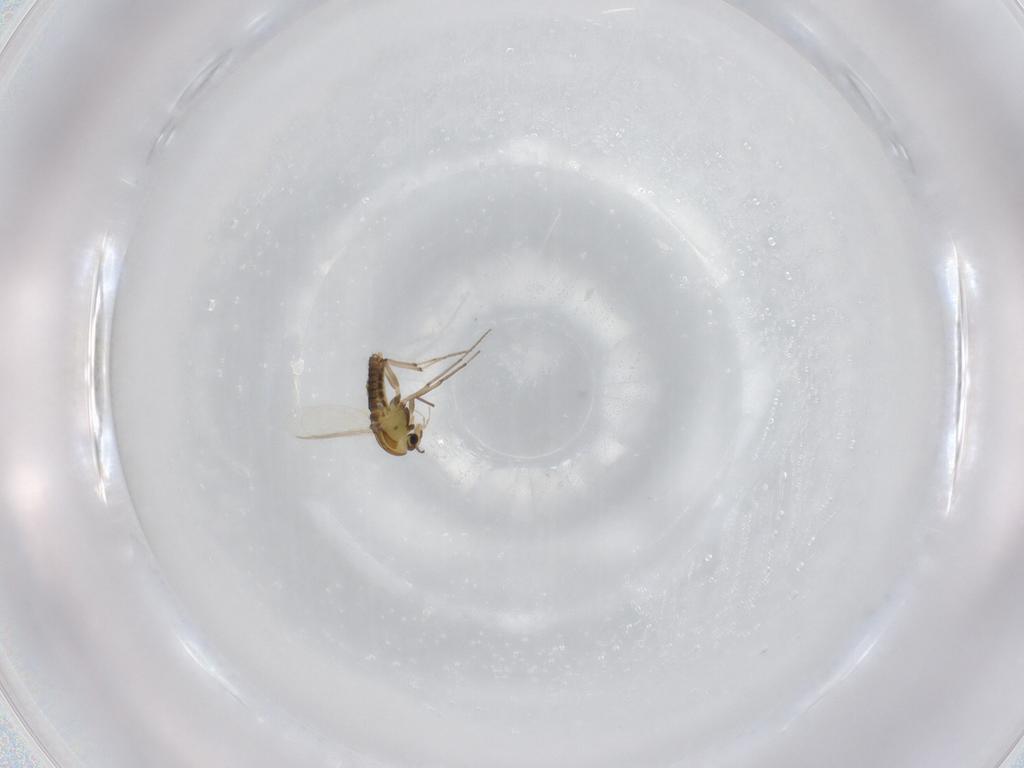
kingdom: Animalia
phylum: Arthropoda
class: Insecta
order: Diptera
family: Chironomidae
